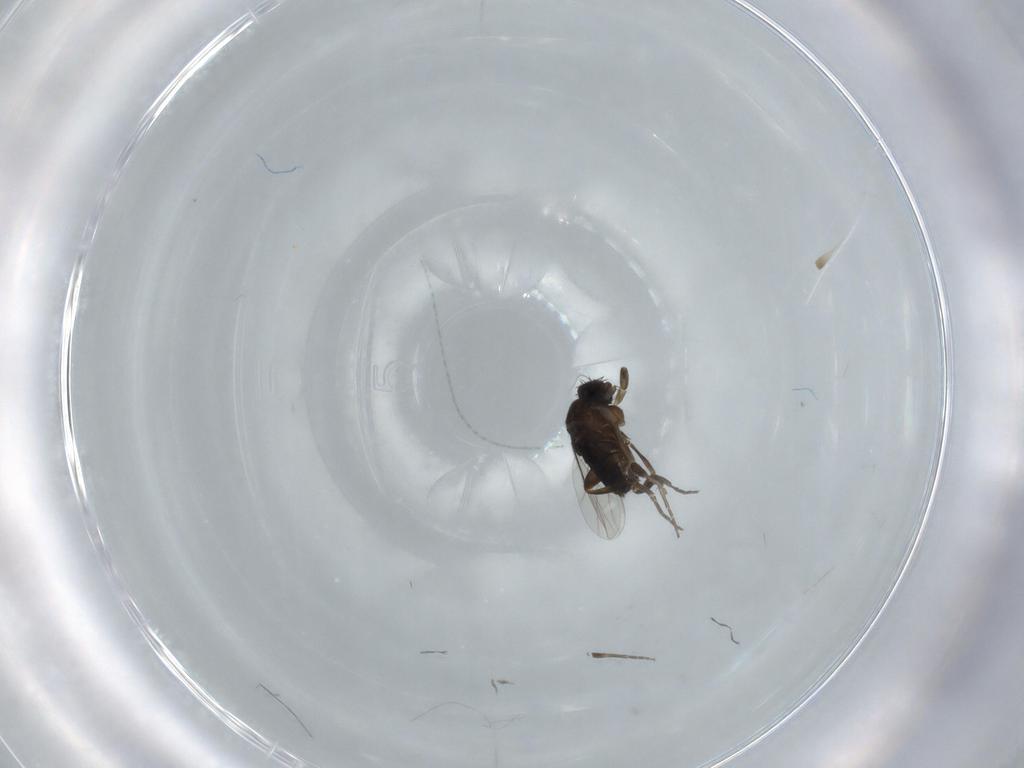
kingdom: Animalia
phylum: Arthropoda
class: Insecta
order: Diptera
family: Phoridae
